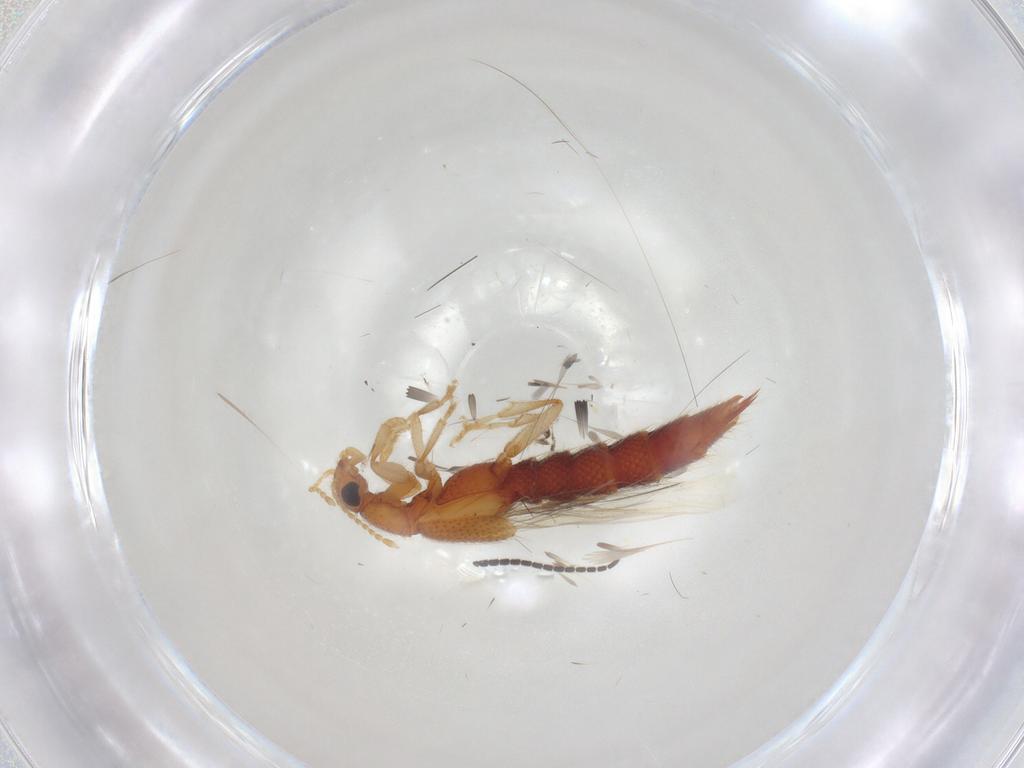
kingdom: Animalia
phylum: Arthropoda
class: Insecta
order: Coleoptera
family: Staphylinidae
